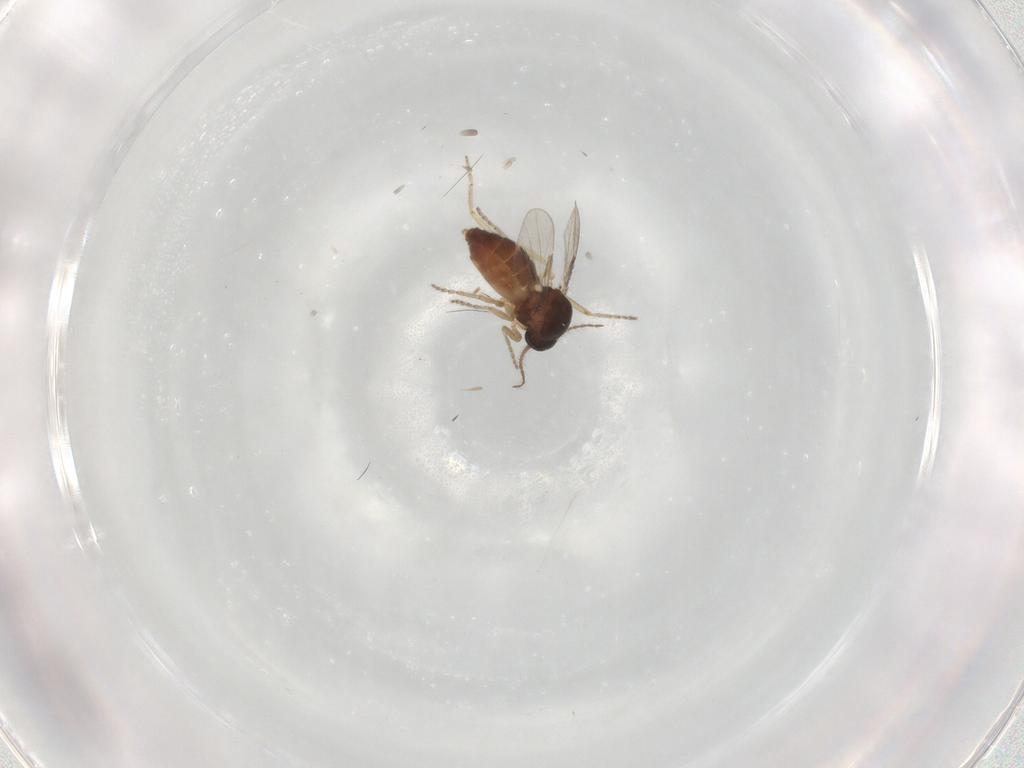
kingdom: Animalia
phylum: Arthropoda
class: Insecta
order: Diptera
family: Ceratopogonidae
